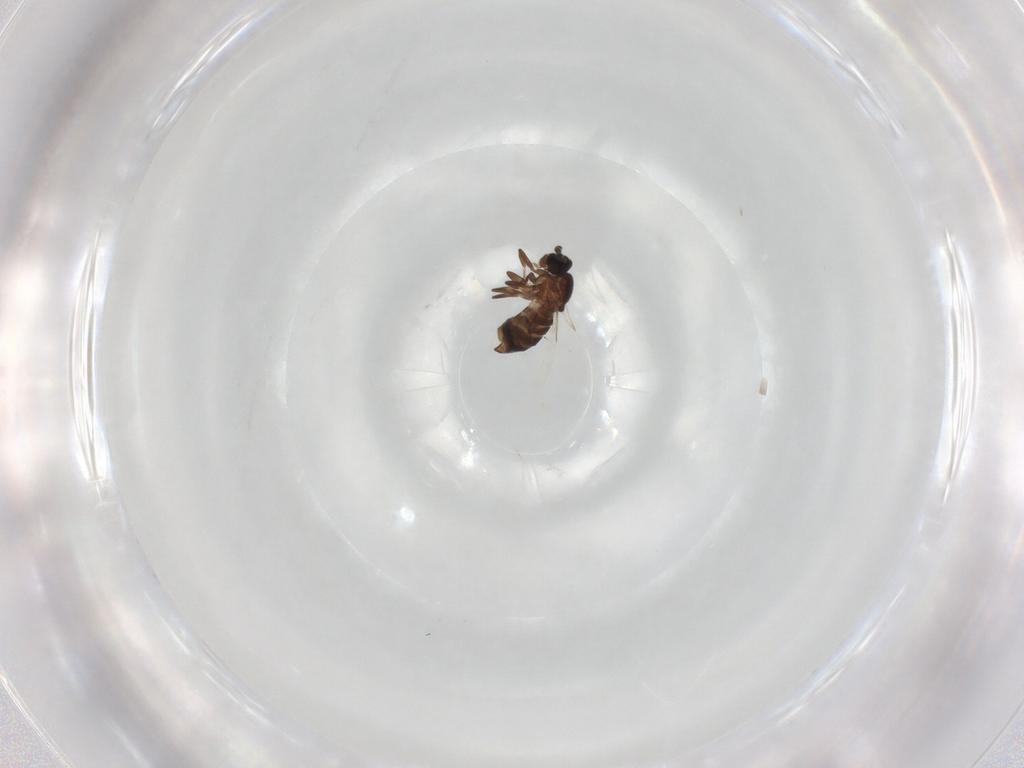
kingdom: Animalia
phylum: Arthropoda
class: Insecta
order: Diptera
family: Scatopsidae
